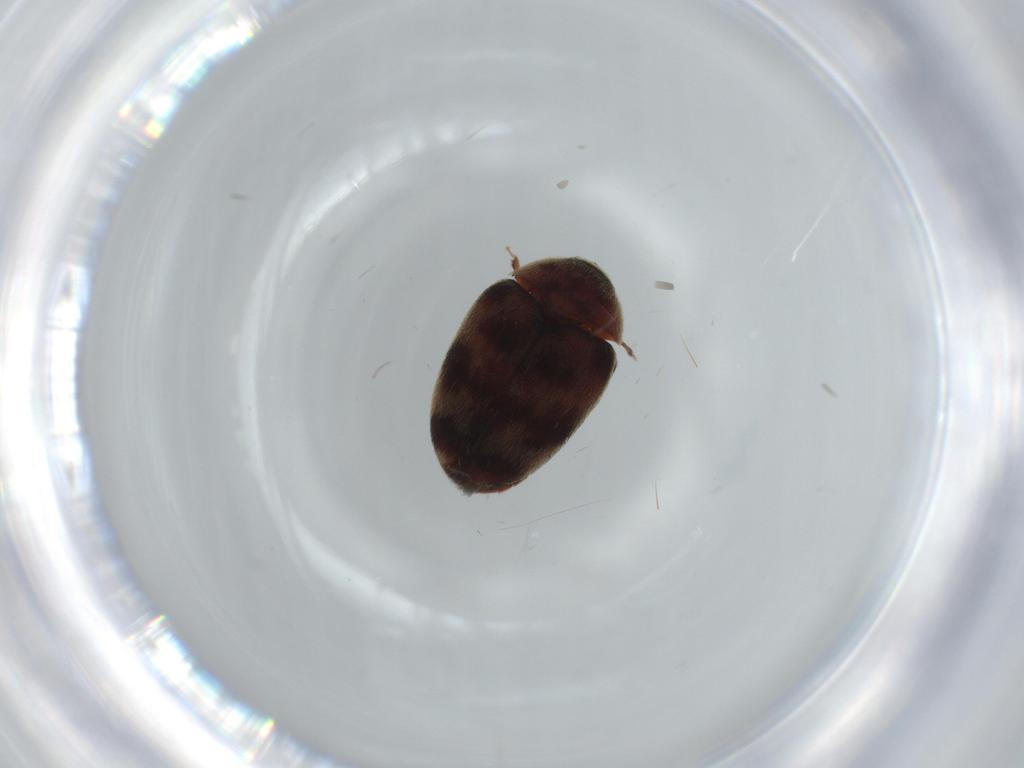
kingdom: Animalia
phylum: Arthropoda
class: Insecta
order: Coleoptera
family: Dermestidae
